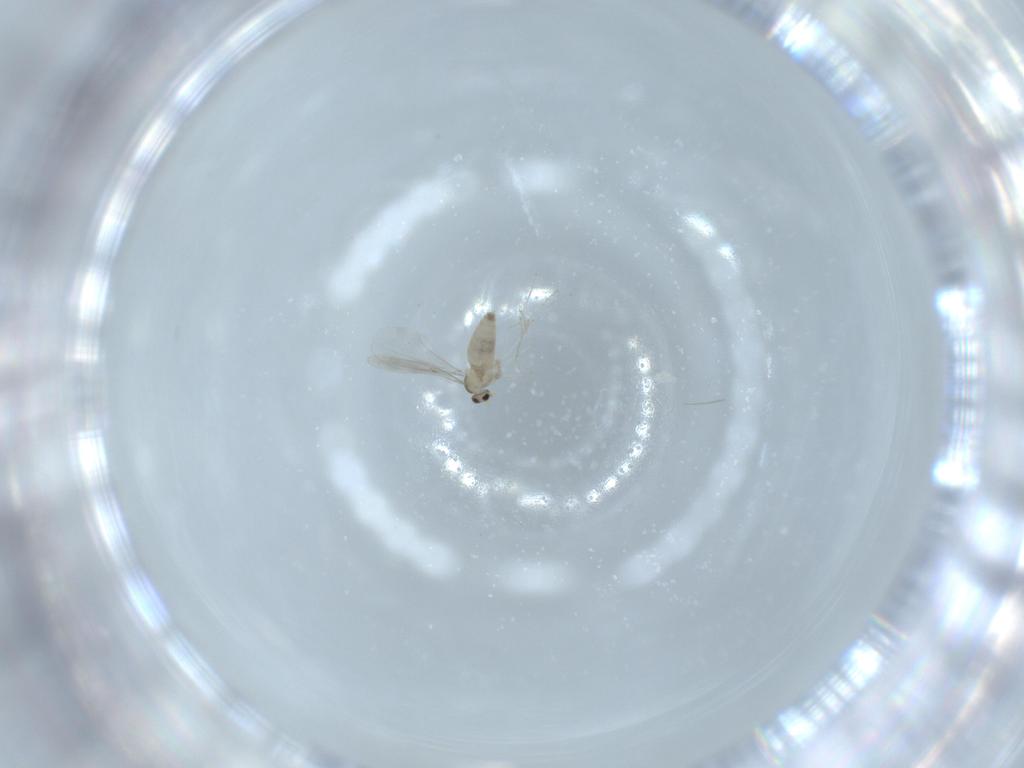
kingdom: Animalia
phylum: Arthropoda
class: Insecta
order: Diptera
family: Cecidomyiidae
